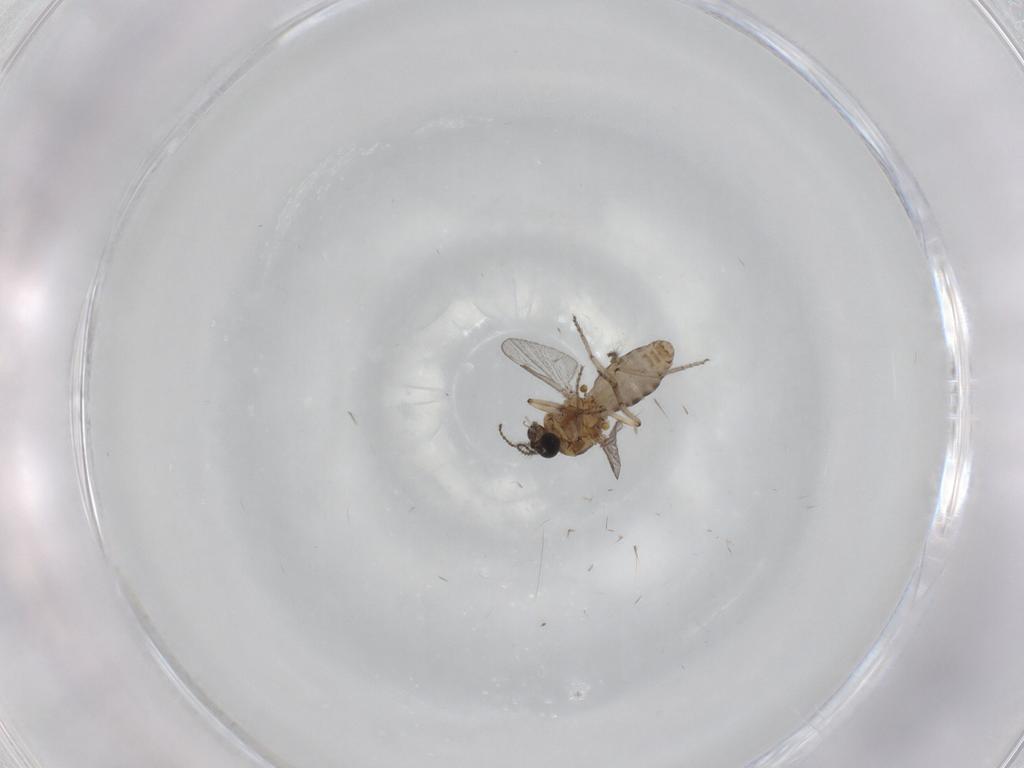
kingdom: Animalia
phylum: Arthropoda
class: Insecta
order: Diptera
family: Ceratopogonidae
